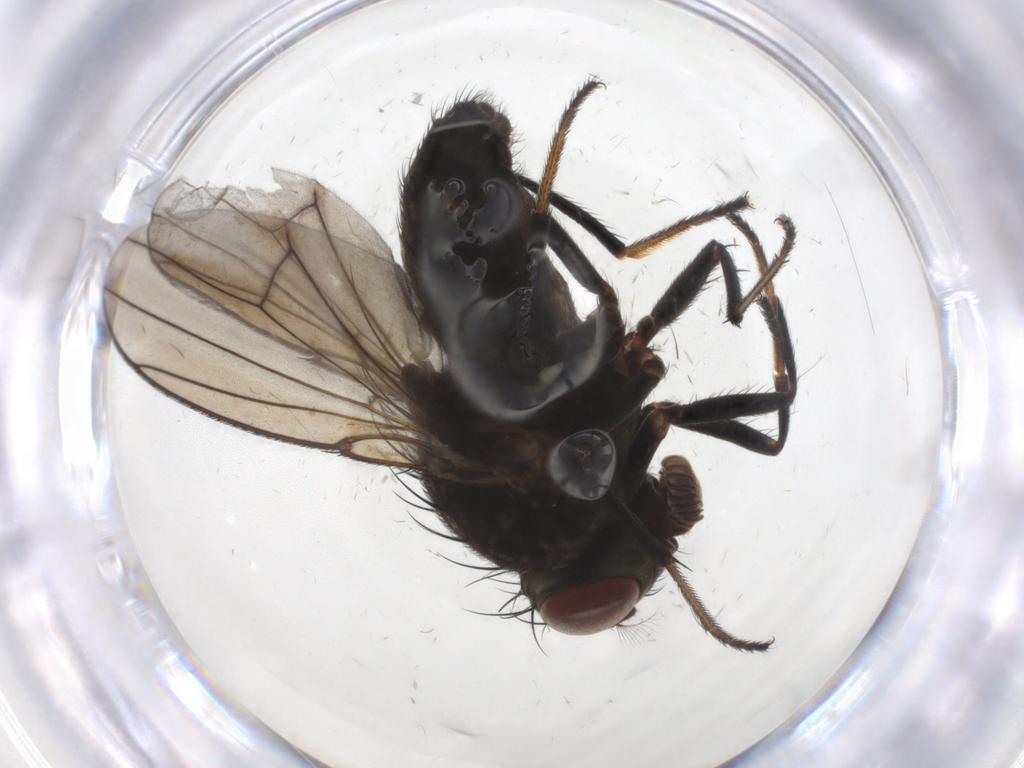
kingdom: Animalia
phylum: Arthropoda
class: Insecta
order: Diptera
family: Ephydridae
